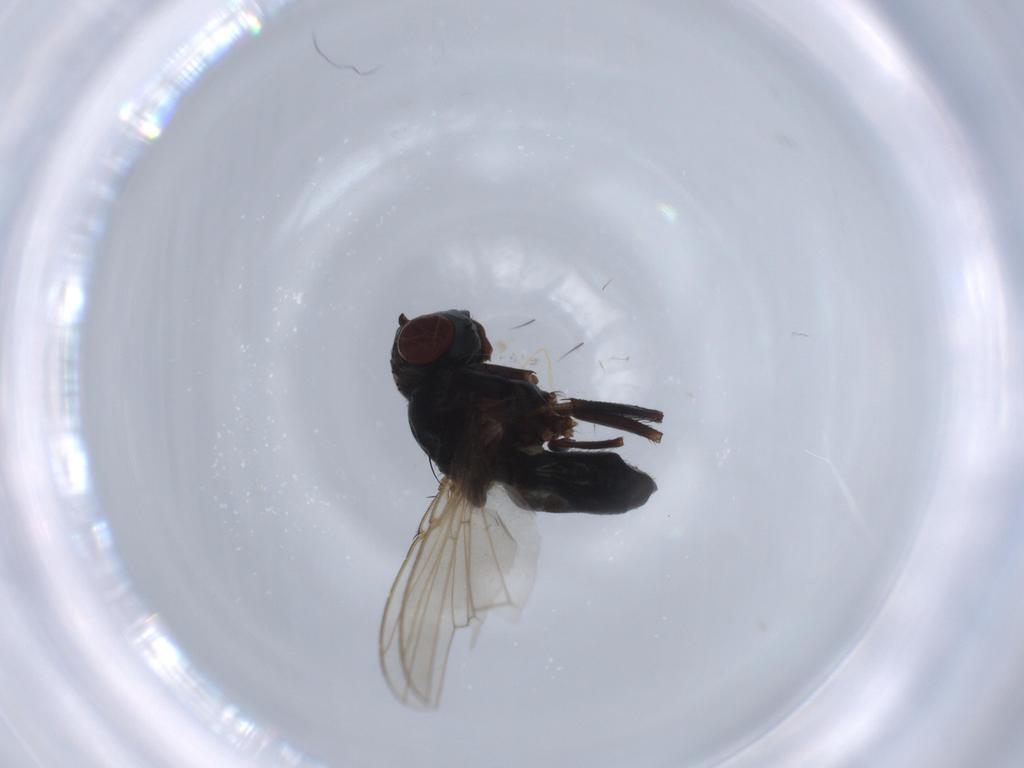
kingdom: Animalia
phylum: Arthropoda
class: Insecta
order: Diptera
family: Ephydridae
